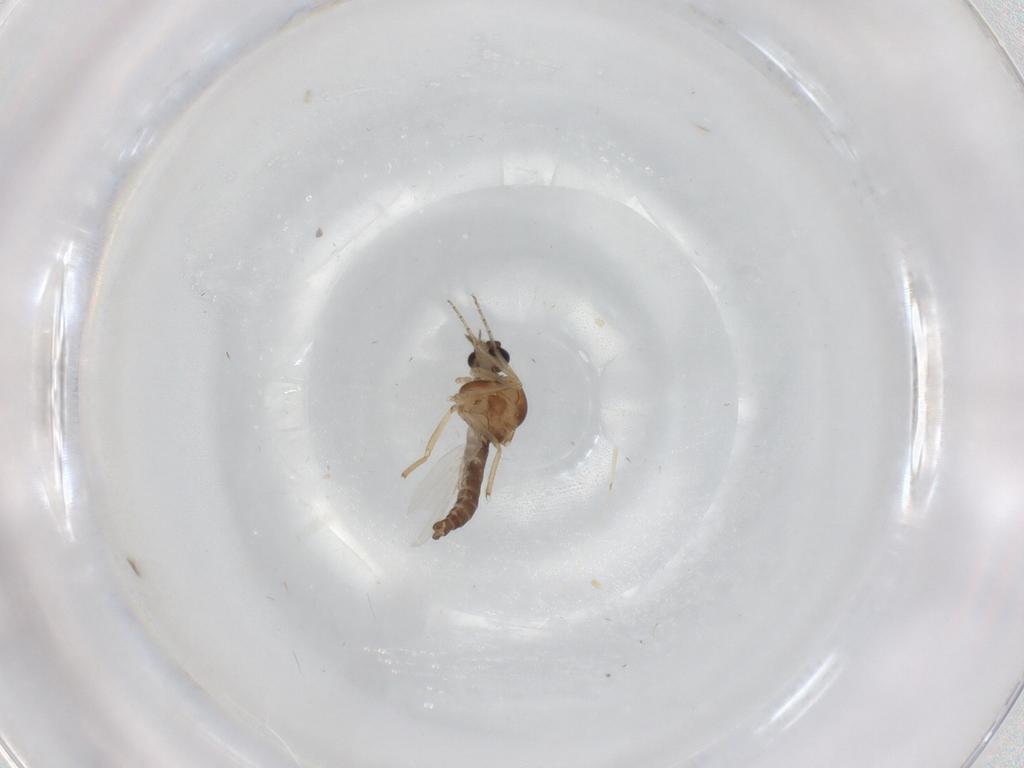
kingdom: Animalia
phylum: Arthropoda
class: Insecta
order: Diptera
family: Ceratopogonidae
